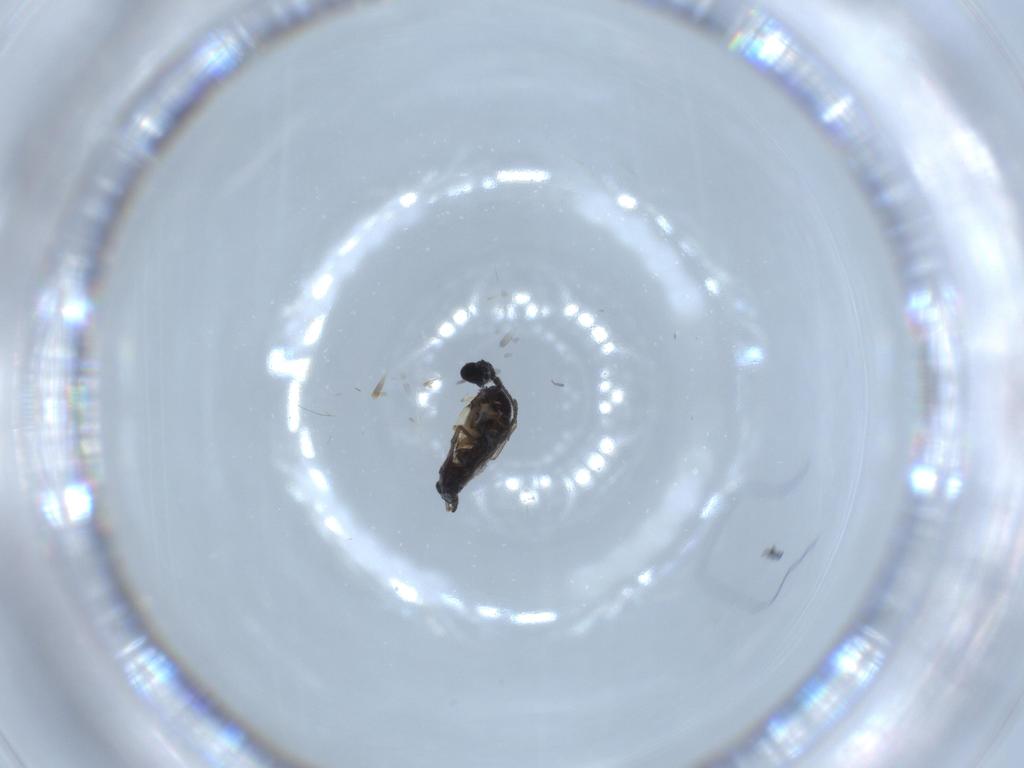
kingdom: Animalia
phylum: Arthropoda
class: Insecta
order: Diptera
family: Sciaridae
